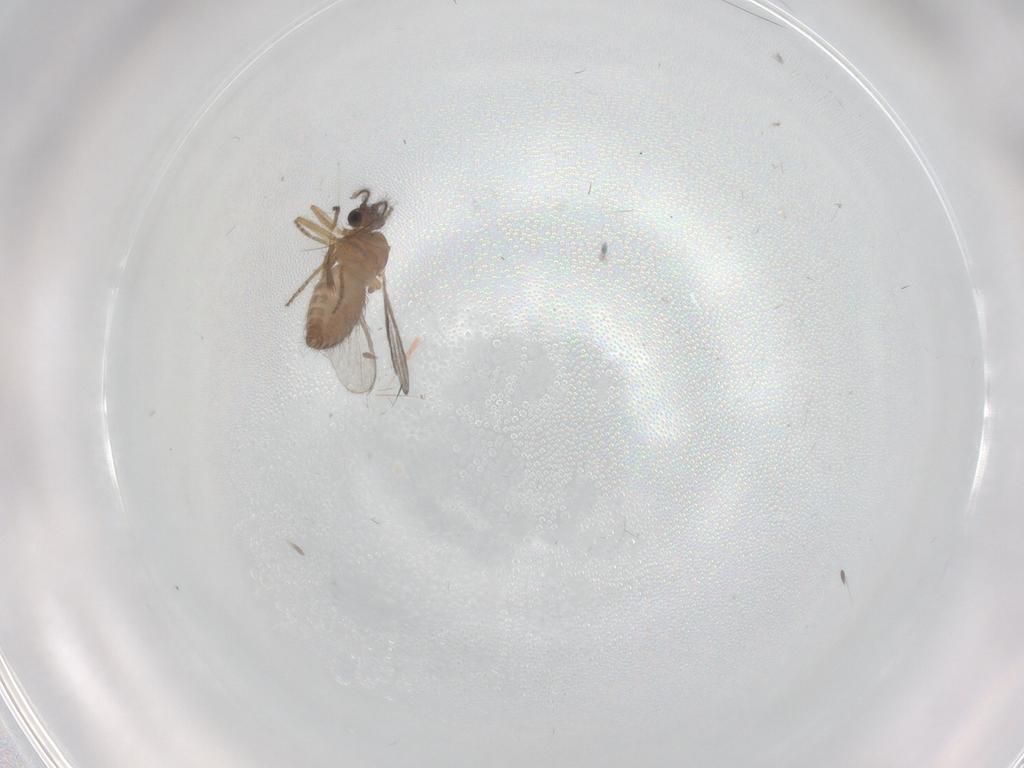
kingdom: Animalia
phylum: Arthropoda
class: Insecta
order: Diptera
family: Ceratopogonidae
